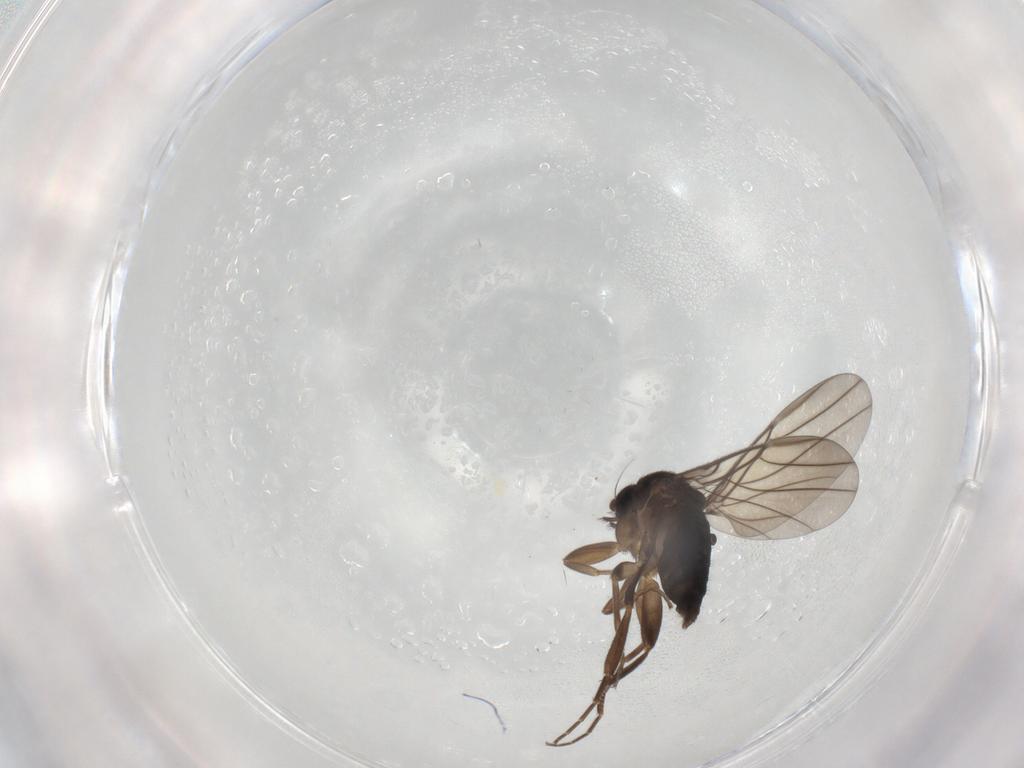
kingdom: Animalia
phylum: Arthropoda
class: Insecta
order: Diptera
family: Phoridae
